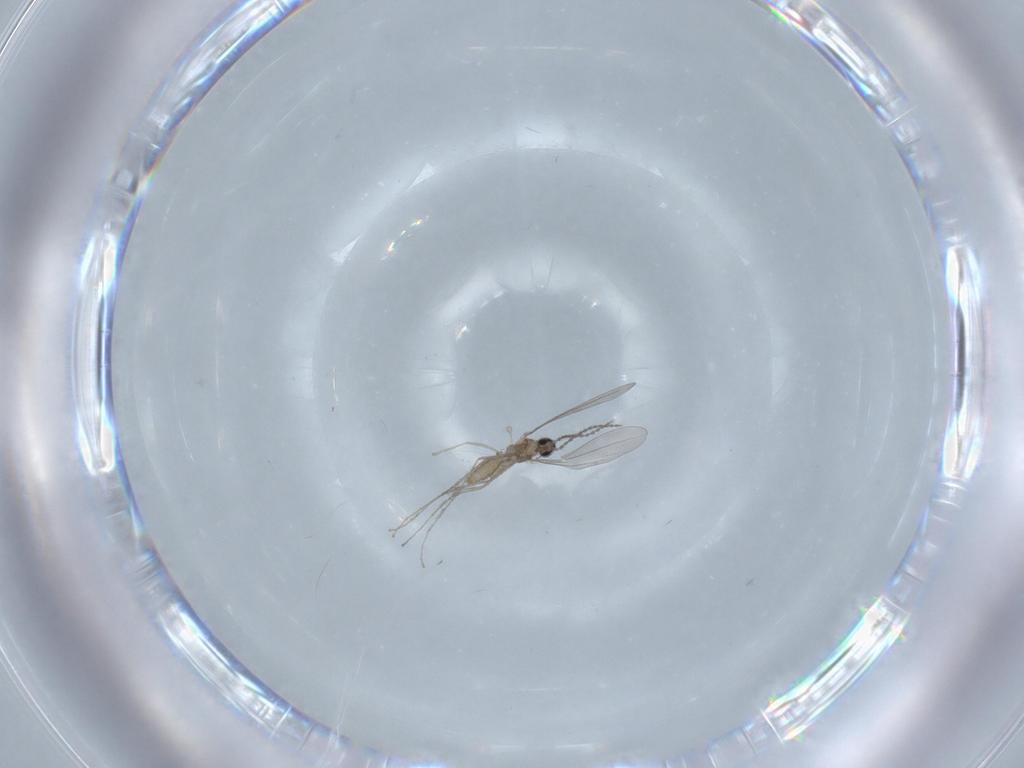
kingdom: Animalia
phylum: Arthropoda
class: Insecta
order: Diptera
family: Cecidomyiidae
